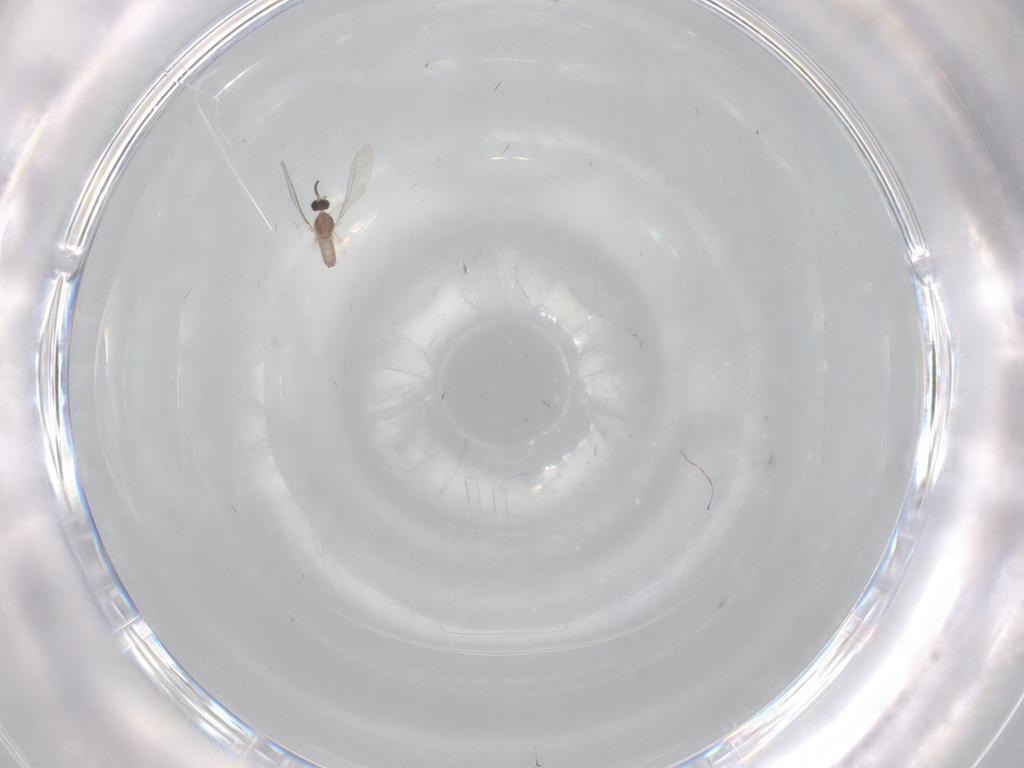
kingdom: Animalia
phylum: Arthropoda
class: Insecta
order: Diptera
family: Cecidomyiidae
